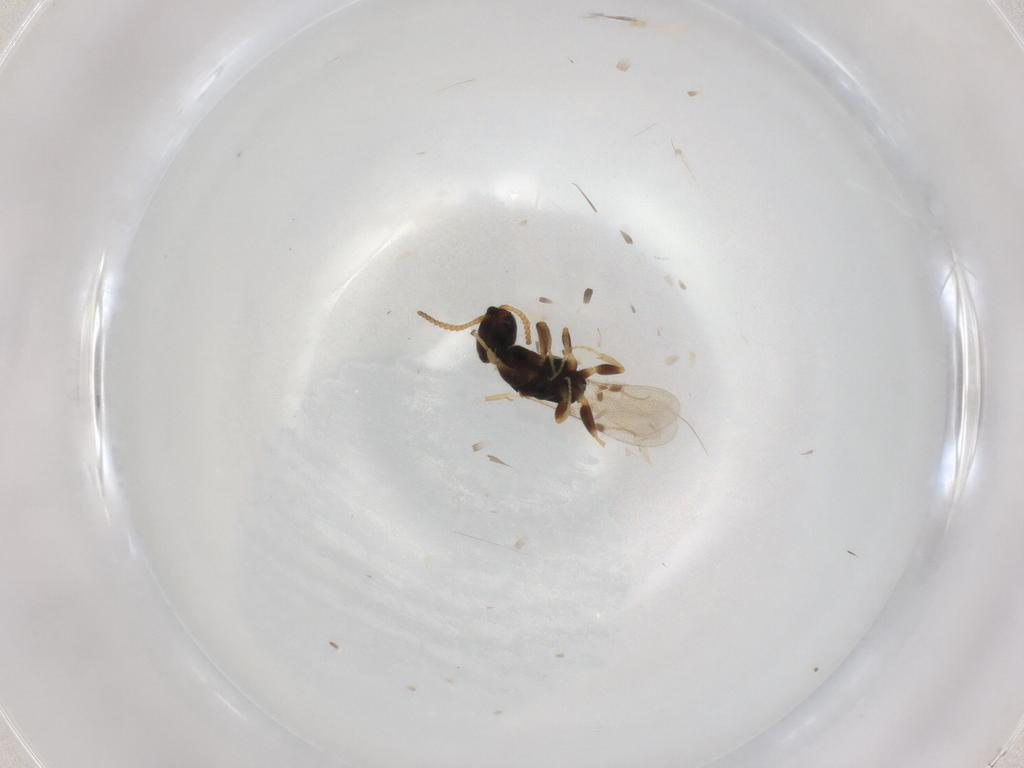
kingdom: Animalia
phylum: Arthropoda
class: Insecta
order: Hymenoptera
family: Bethylidae
